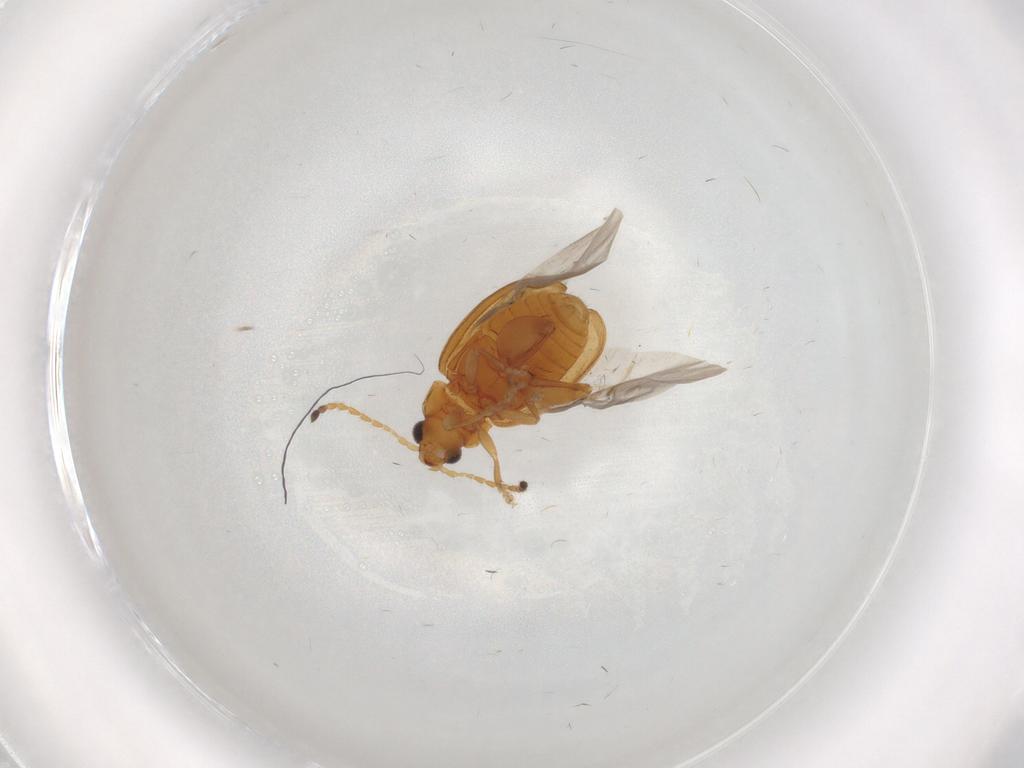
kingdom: Animalia
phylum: Arthropoda
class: Insecta
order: Coleoptera
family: Chrysomelidae
